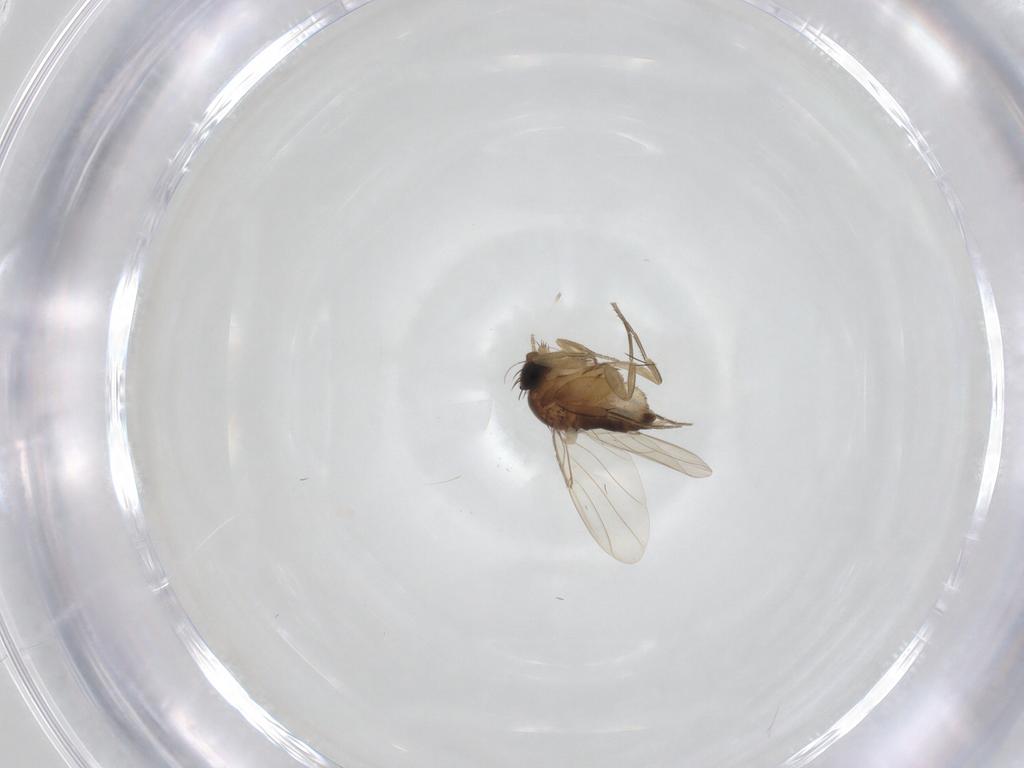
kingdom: Animalia
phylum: Arthropoda
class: Insecta
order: Diptera
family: Phoridae
